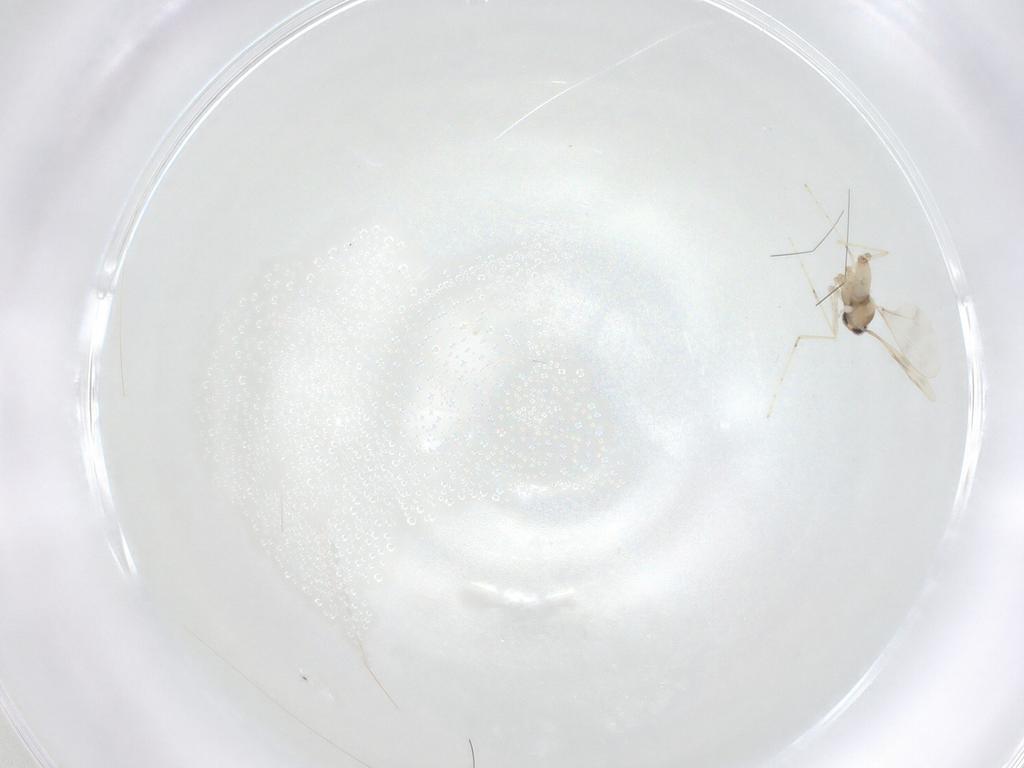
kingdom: Animalia
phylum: Arthropoda
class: Insecta
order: Diptera
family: Cecidomyiidae
